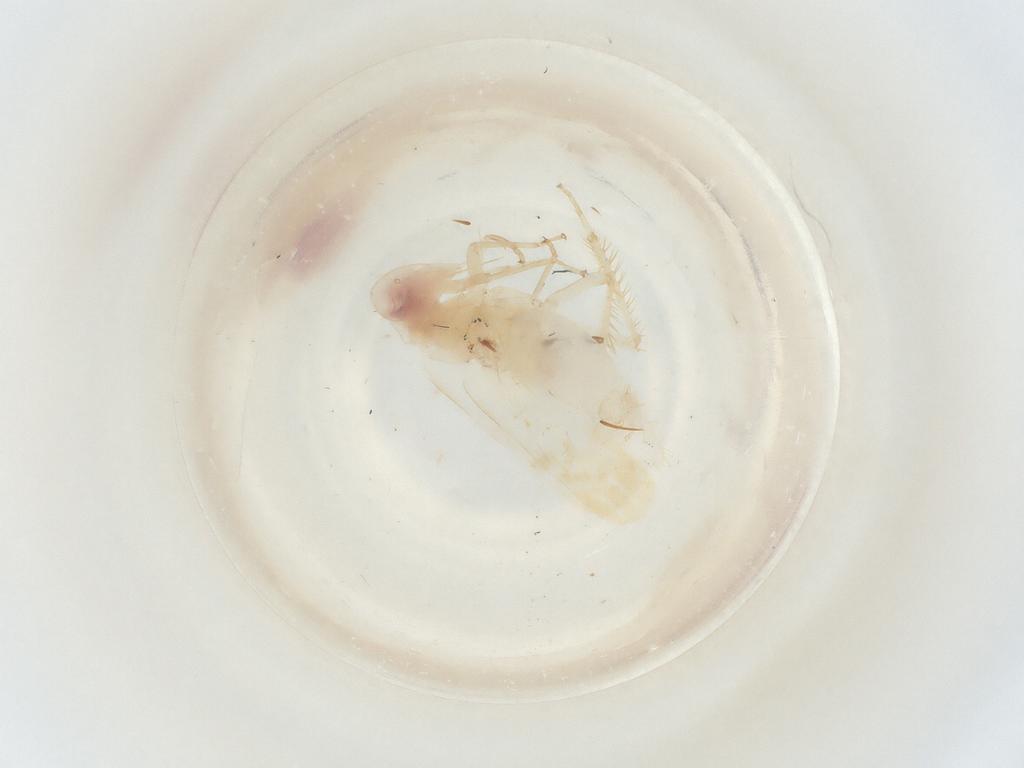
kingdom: Animalia
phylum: Arthropoda
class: Insecta
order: Hemiptera
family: Cicadellidae
